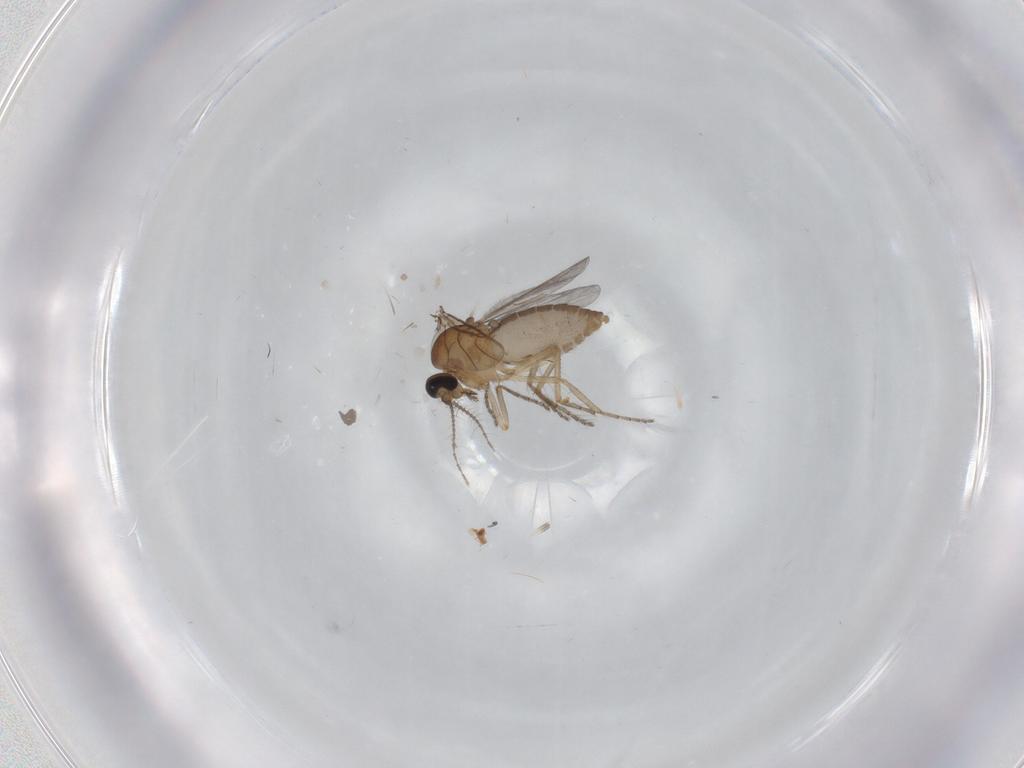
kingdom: Animalia
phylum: Arthropoda
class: Insecta
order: Diptera
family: Ceratopogonidae
